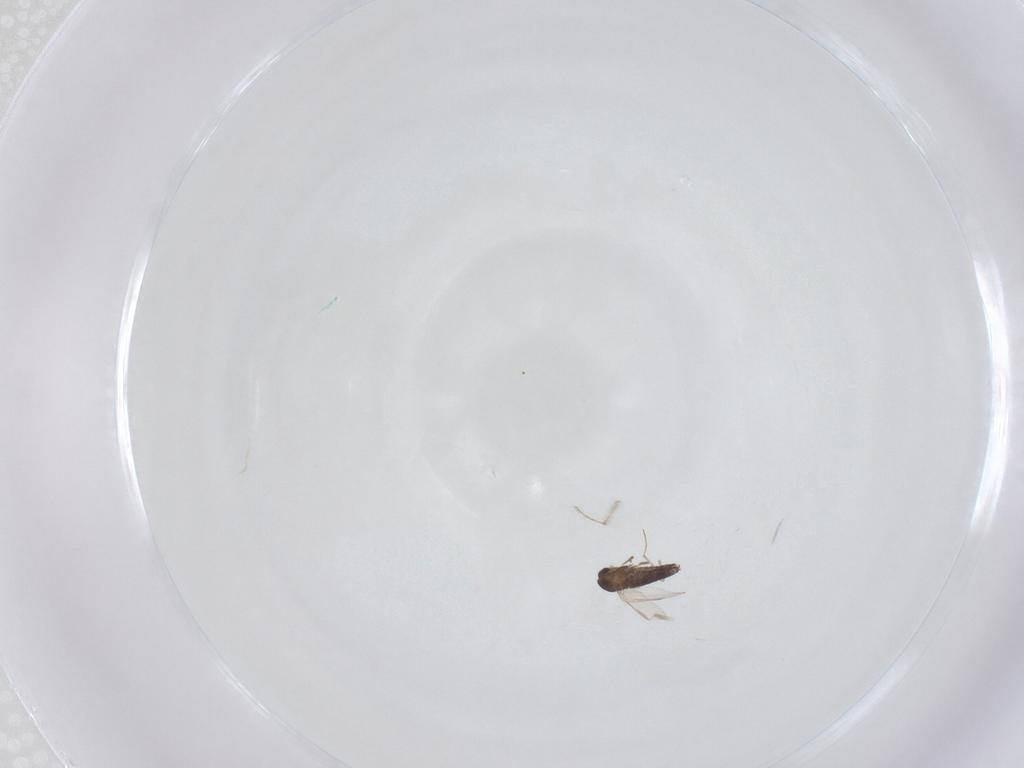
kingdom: Animalia
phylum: Arthropoda
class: Insecta
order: Diptera
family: Chironomidae
